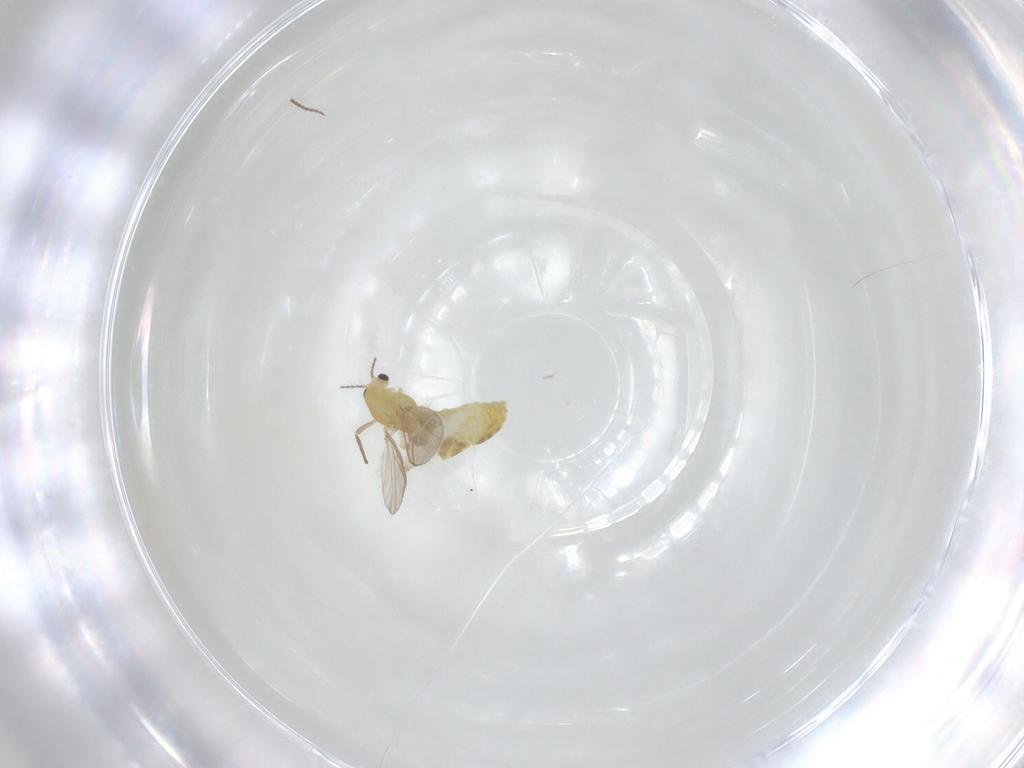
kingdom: Animalia
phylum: Arthropoda
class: Insecta
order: Diptera
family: Chironomidae
